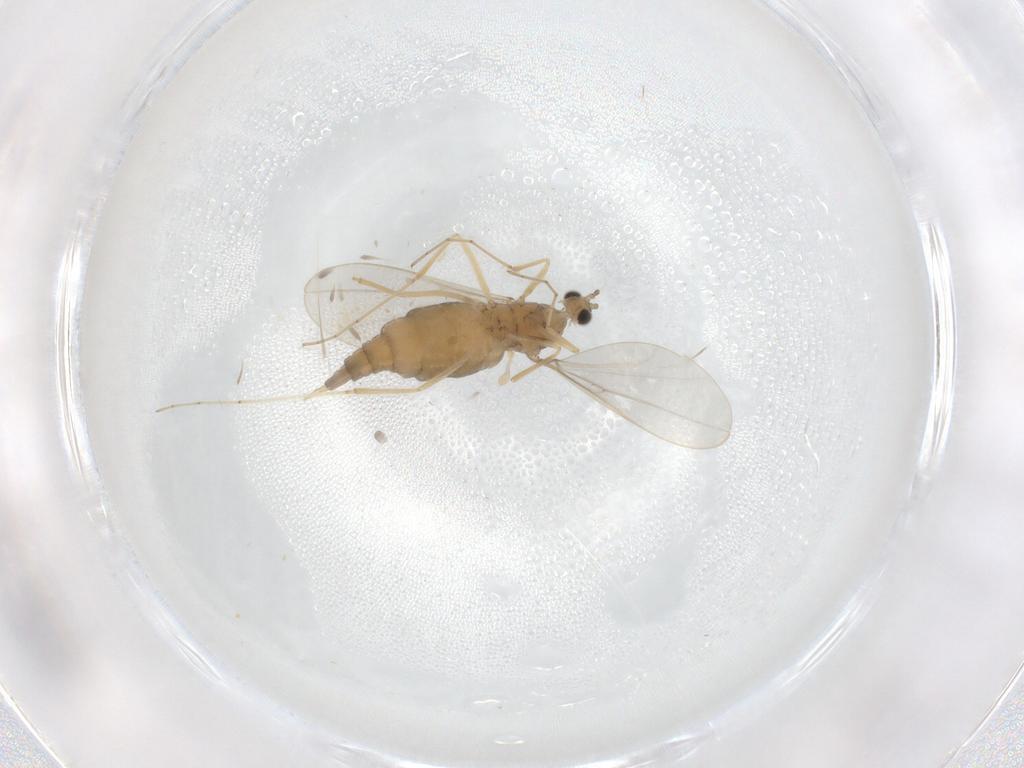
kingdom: Animalia
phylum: Arthropoda
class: Insecta
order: Diptera
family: Cecidomyiidae
